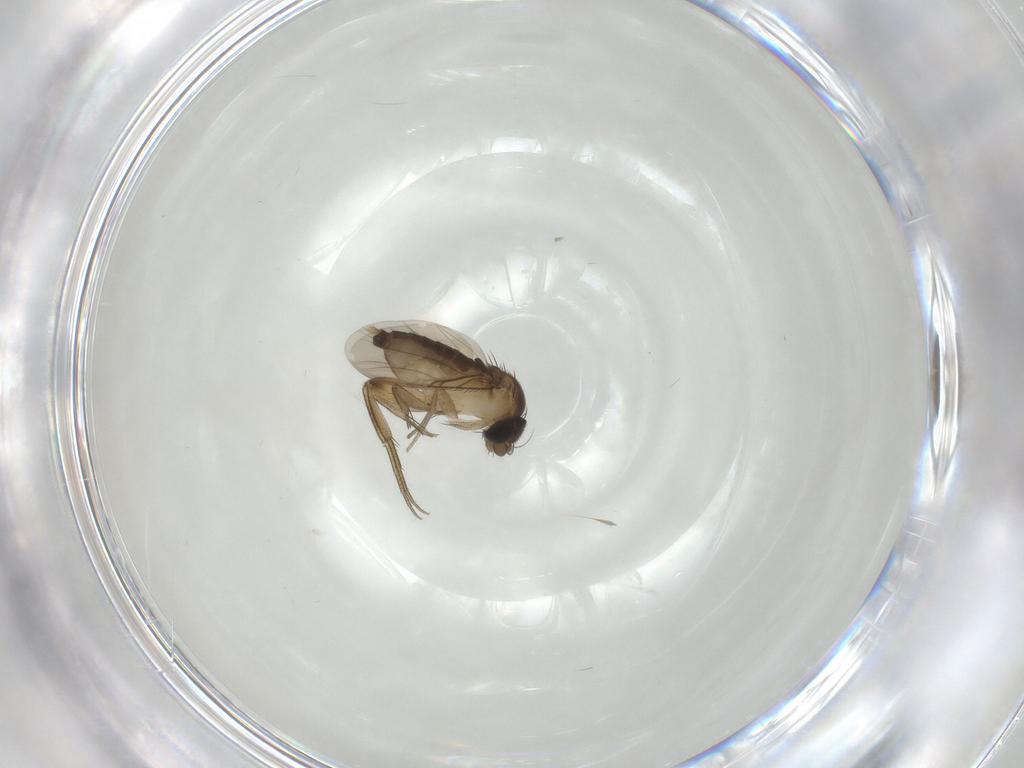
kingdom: Animalia
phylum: Arthropoda
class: Insecta
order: Diptera
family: Phoridae
